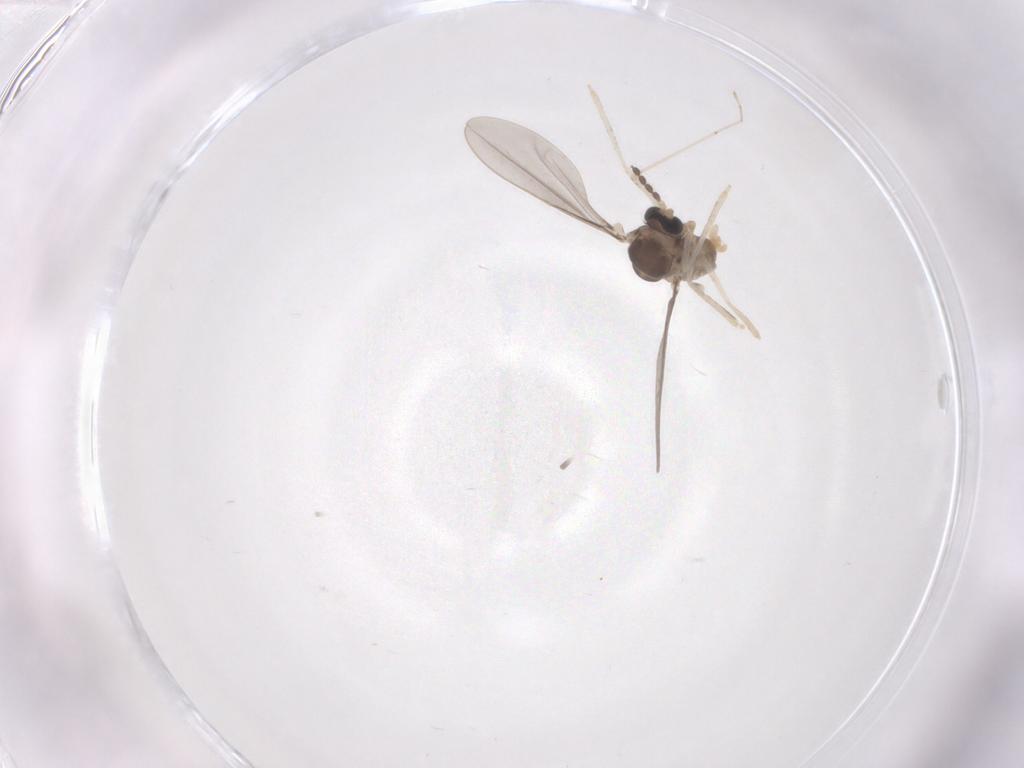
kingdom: Animalia
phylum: Arthropoda
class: Insecta
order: Diptera
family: Cecidomyiidae
